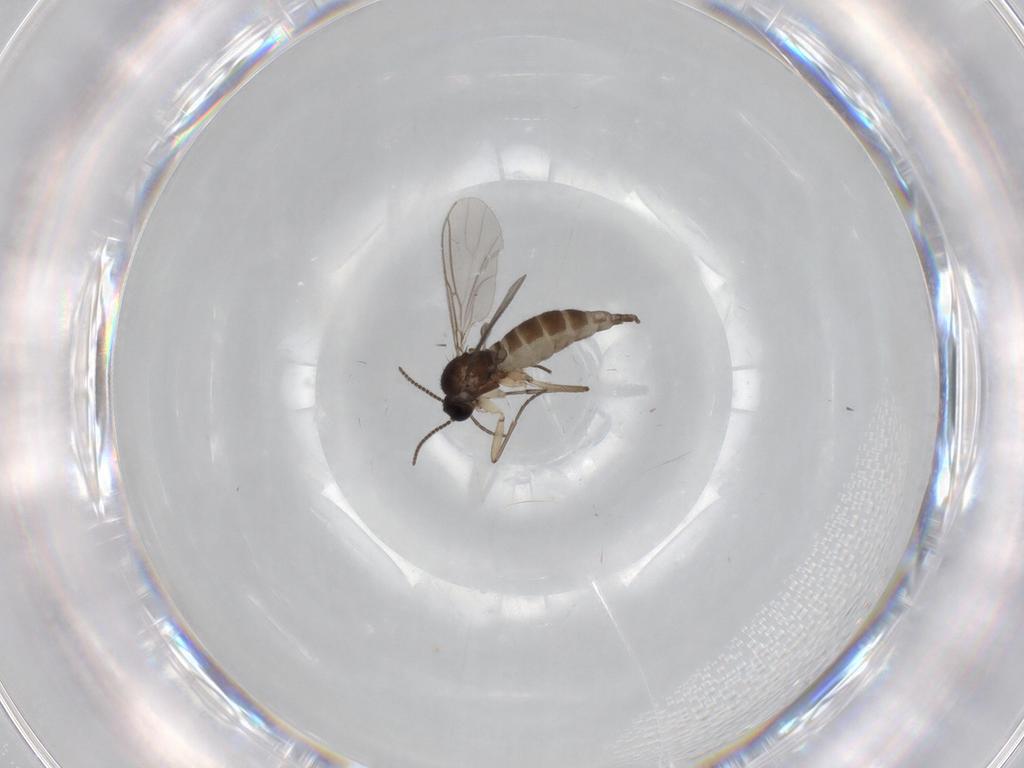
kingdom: Animalia
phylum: Arthropoda
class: Insecta
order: Diptera
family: Sciaridae
